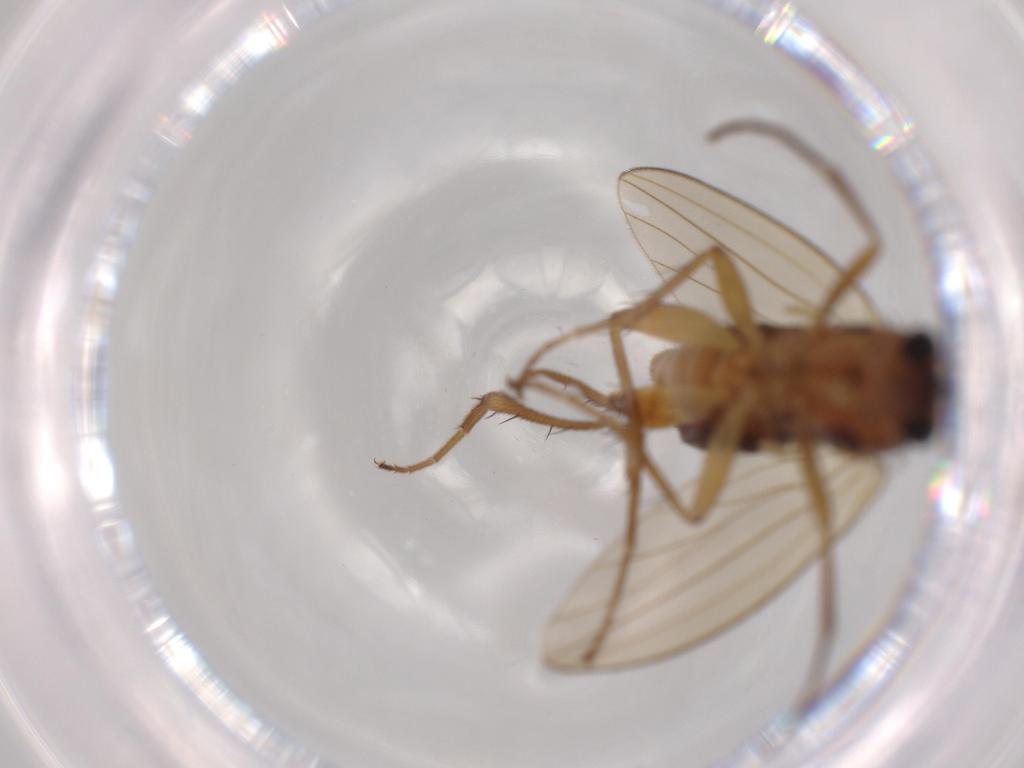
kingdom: Animalia
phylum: Arthropoda
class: Insecta
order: Diptera
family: Lonchopteridae
